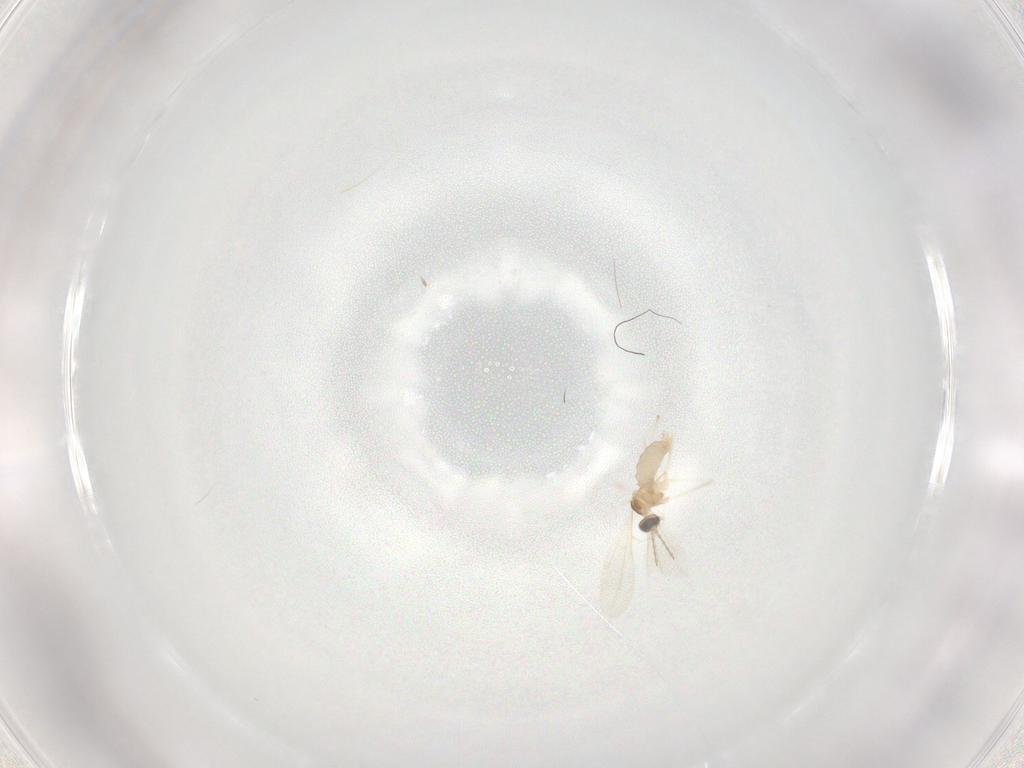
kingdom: Animalia
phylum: Arthropoda
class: Insecta
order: Diptera
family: Cecidomyiidae
